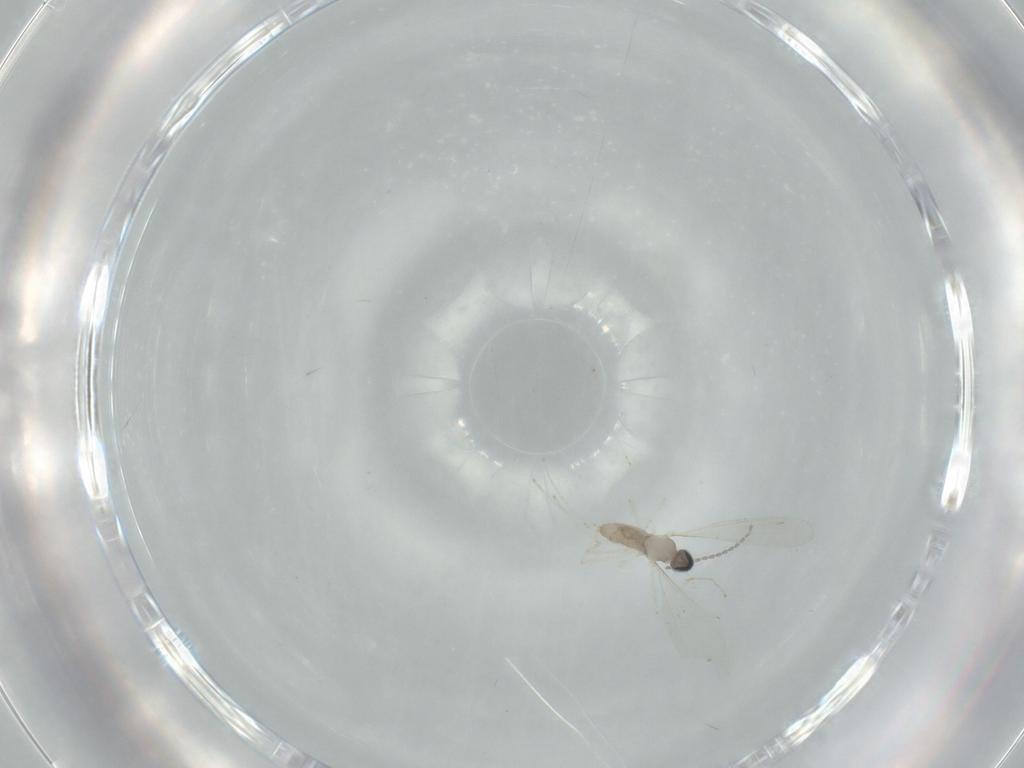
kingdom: Animalia
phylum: Arthropoda
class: Insecta
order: Diptera
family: Cecidomyiidae
